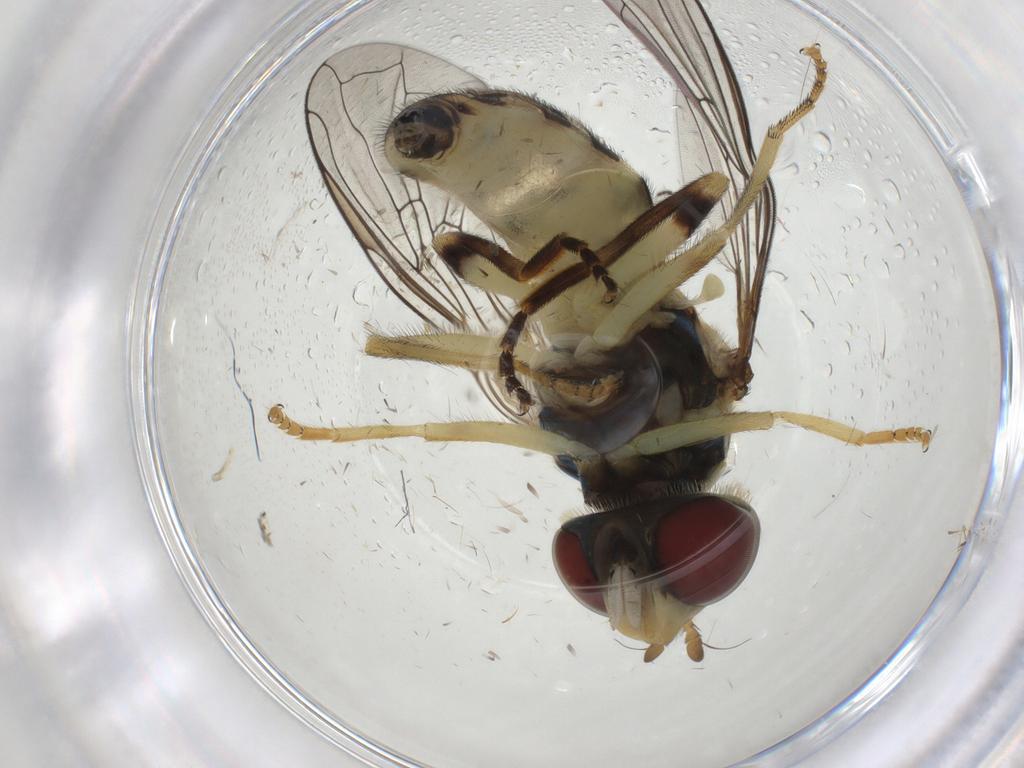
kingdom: Animalia
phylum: Arthropoda
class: Insecta
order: Diptera
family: Syrphidae
